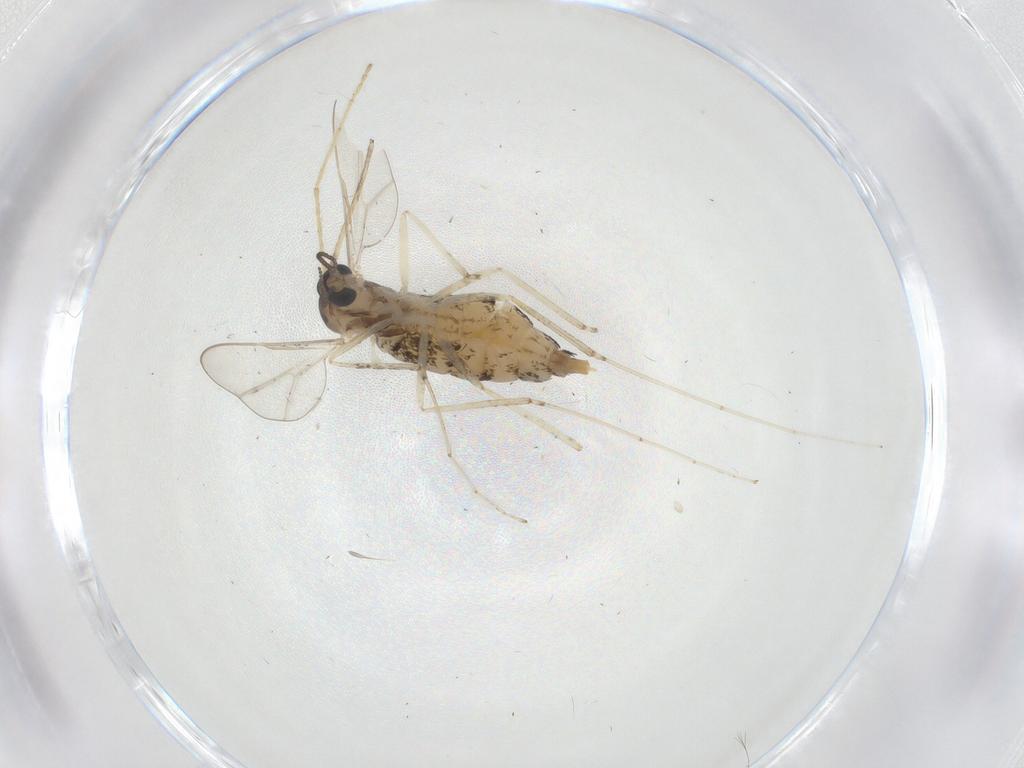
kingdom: Animalia
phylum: Arthropoda
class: Insecta
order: Diptera
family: Cecidomyiidae
